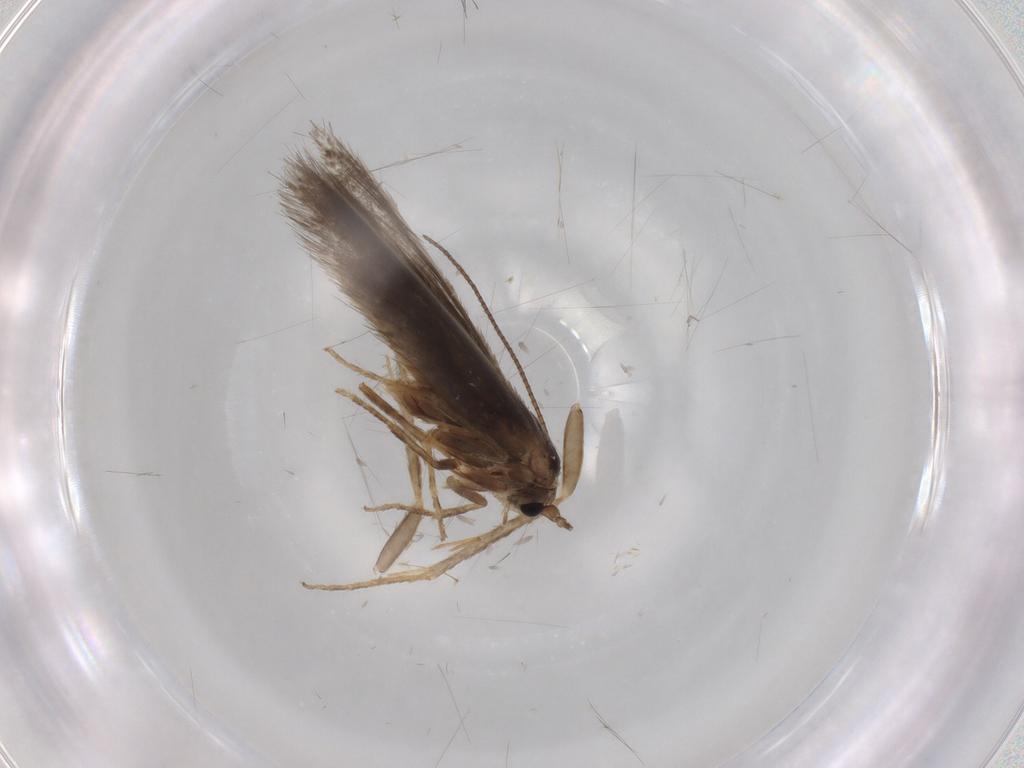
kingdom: Animalia
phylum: Arthropoda
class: Insecta
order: Lepidoptera
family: Nepticulidae
